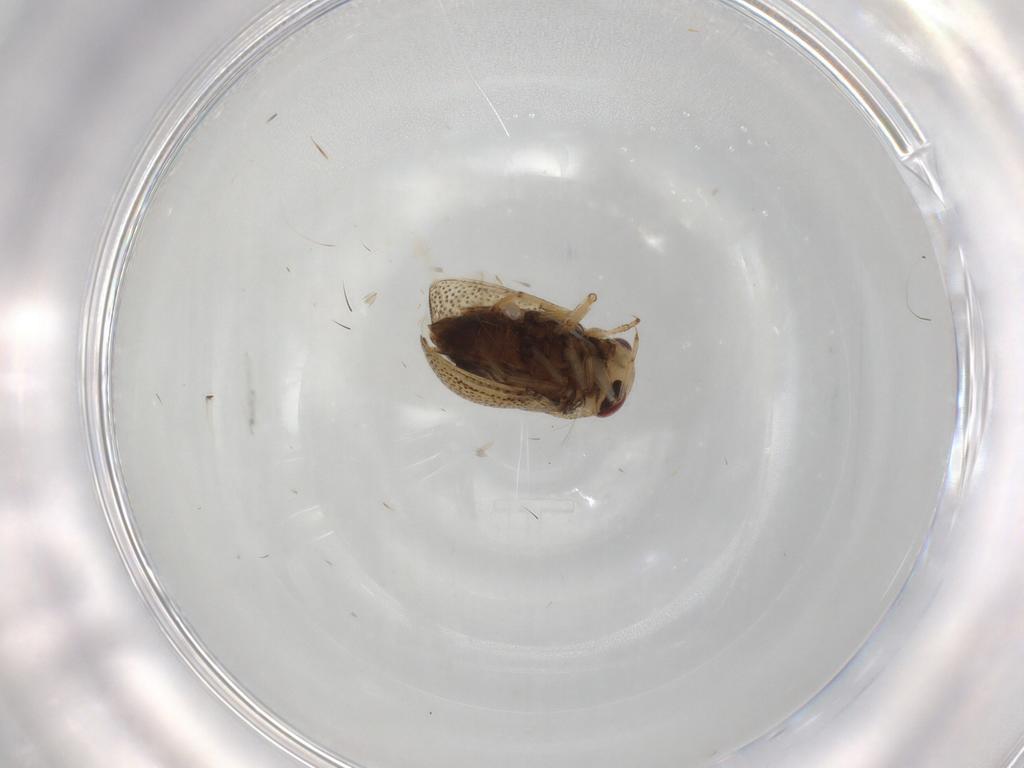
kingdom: Animalia
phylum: Arthropoda
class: Insecta
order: Hemiptera
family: Pleidae
